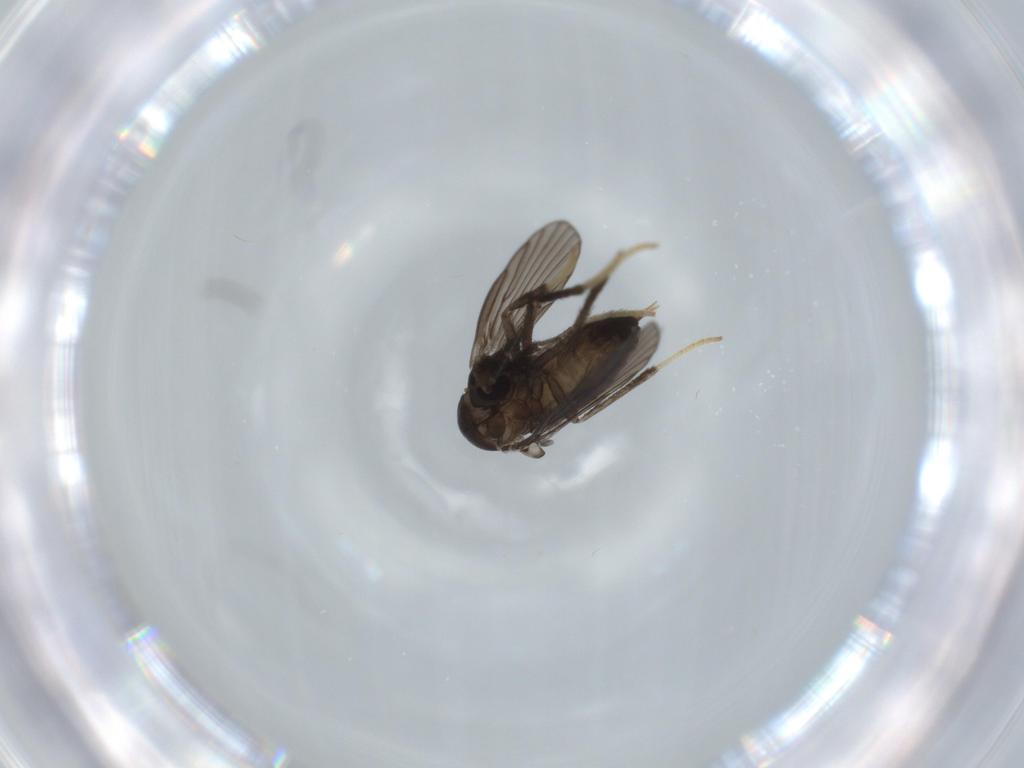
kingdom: Animalia
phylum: Arthropoda
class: Insecta
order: Diptera
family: Psychodidae
